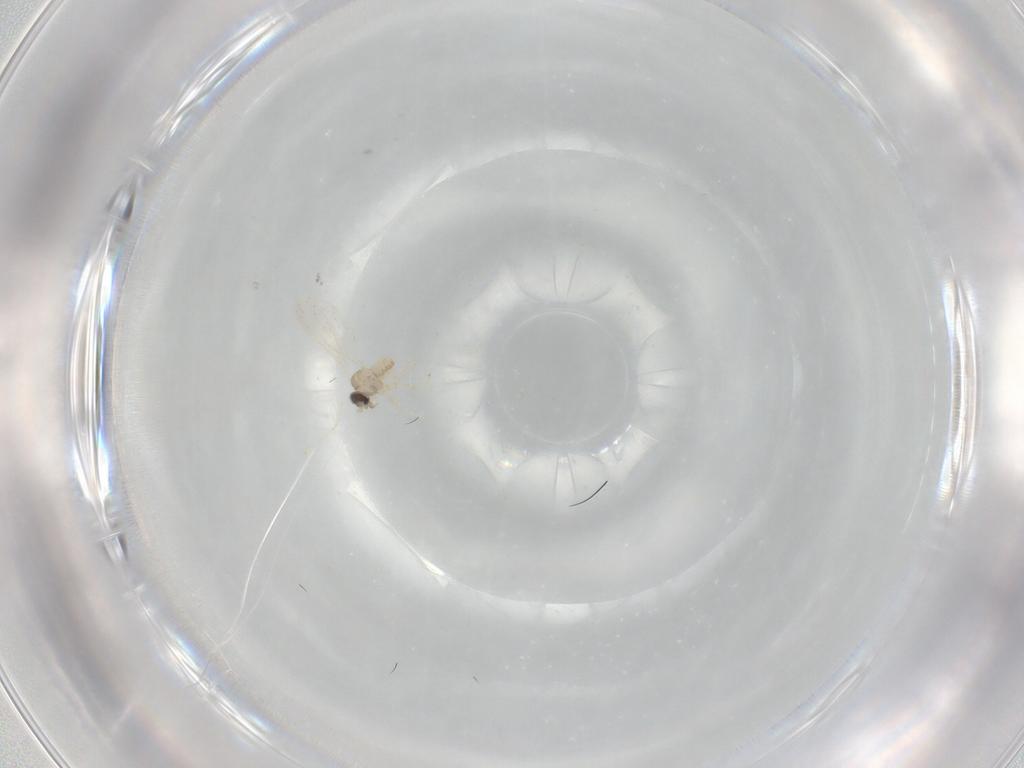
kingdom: Animalia
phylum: Arthropoda
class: Insecta
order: Diptera
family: Cecidomyiidae
